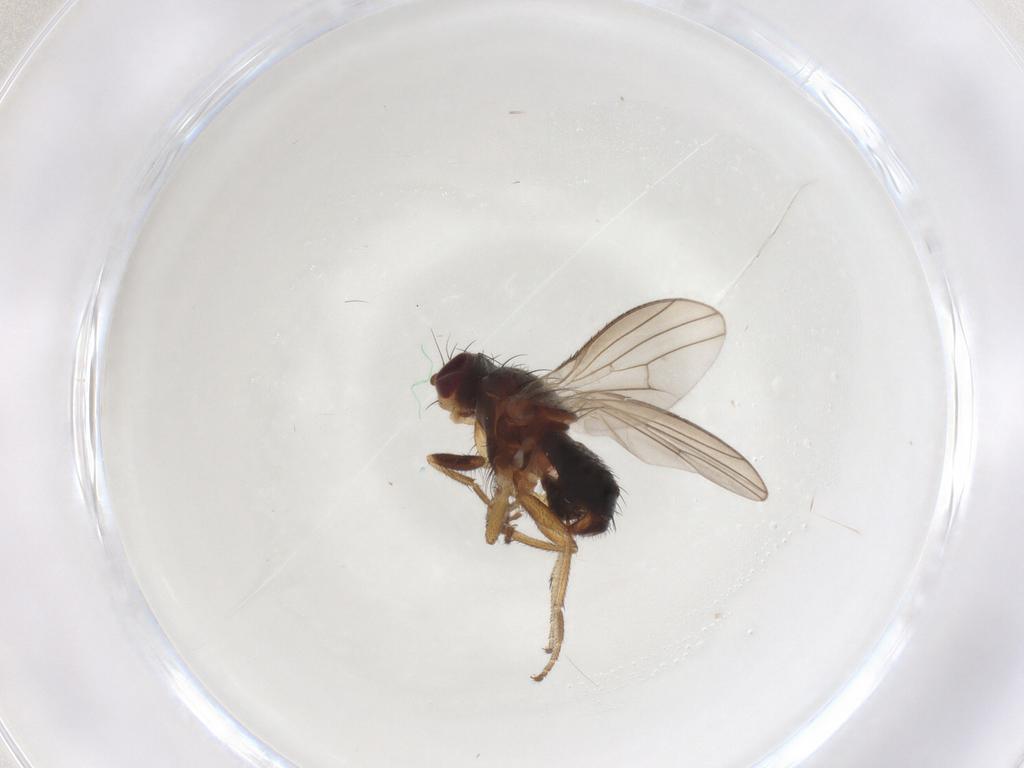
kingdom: Animalia
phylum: Arthropoda
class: Insecta
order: Diptera
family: Heleomyzidae
